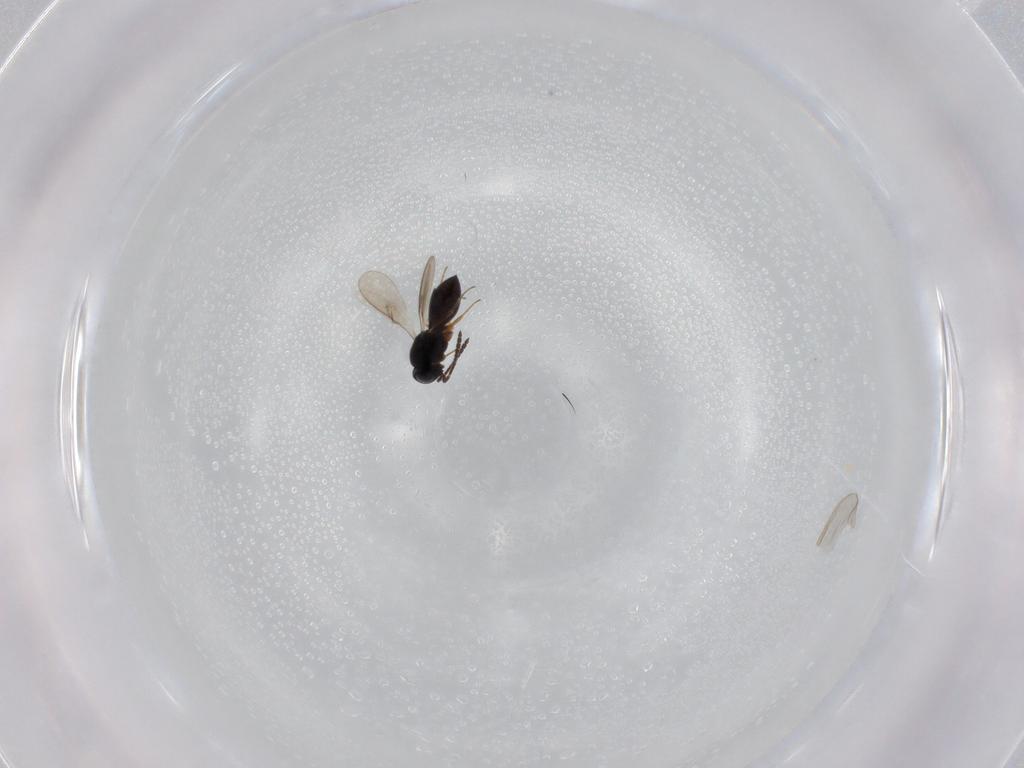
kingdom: Animalia
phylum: Arthropoda
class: Insecta
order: Hymenoptera
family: Scelionidae
